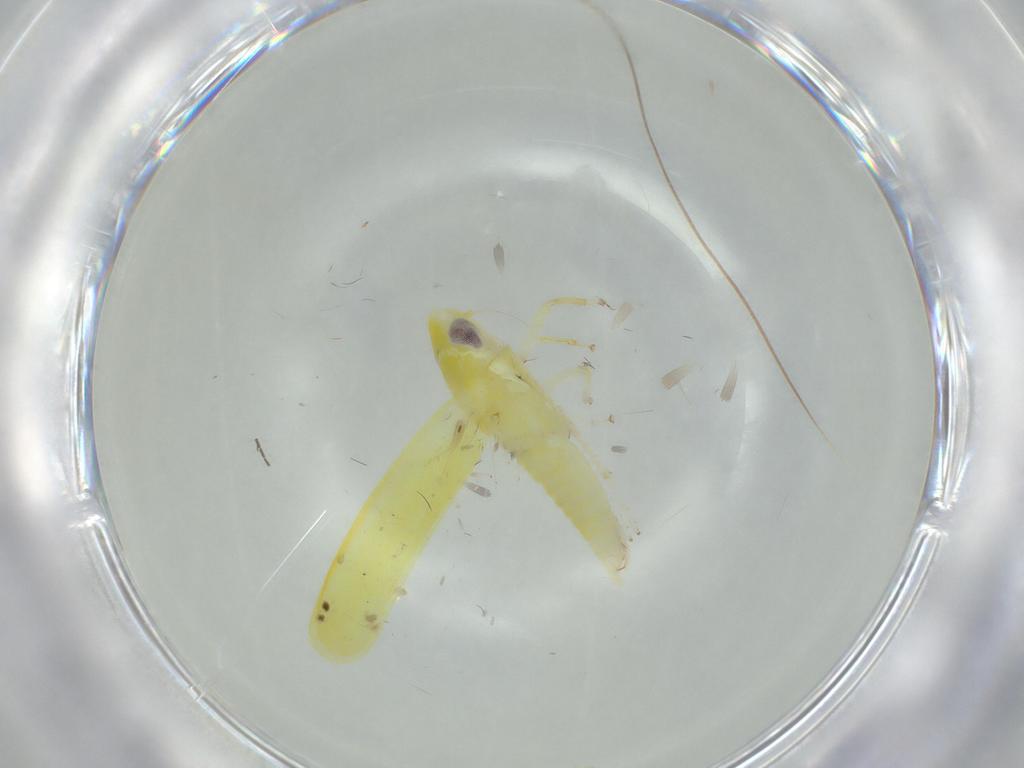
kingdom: Animalia
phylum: Arthropoda
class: Insecta
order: Hemiptera
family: Cicadellidae
